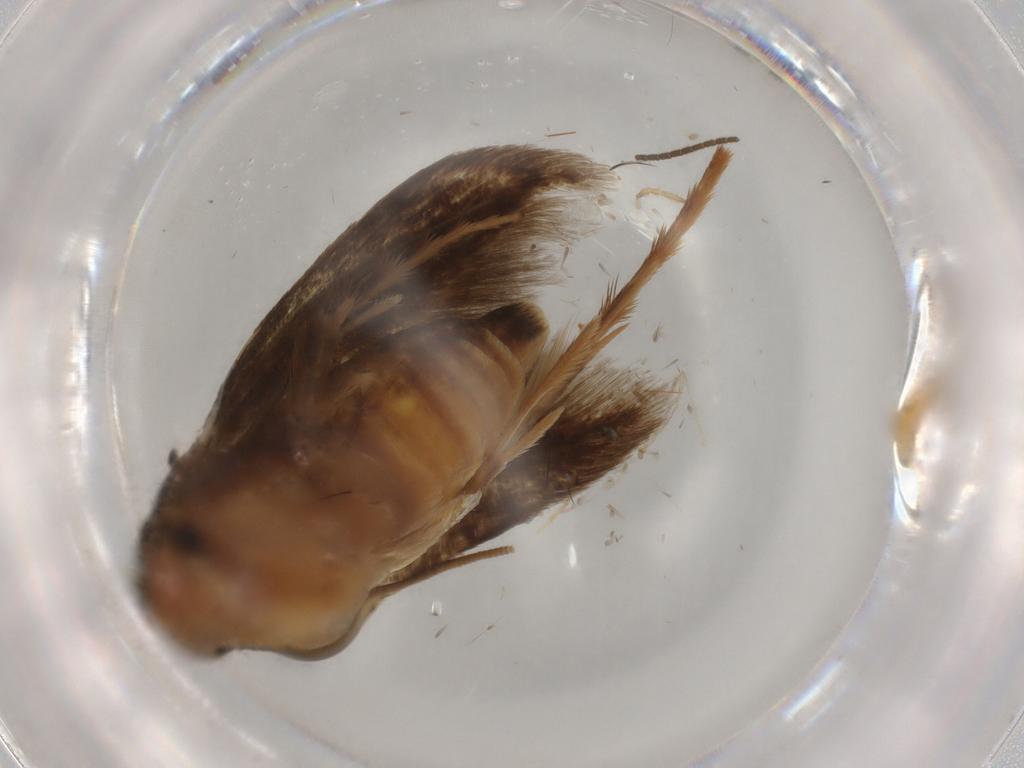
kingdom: Animalia
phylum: Arthropoda
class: Insecta
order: Lepidoptera
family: Tineidae
